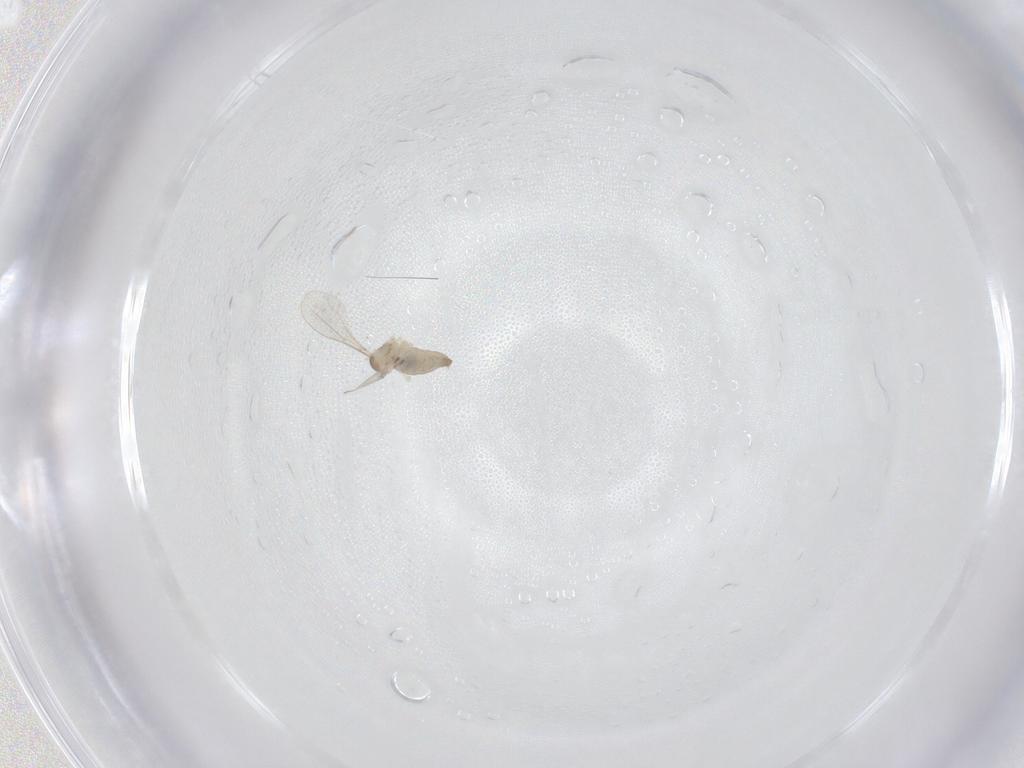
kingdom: Animalia
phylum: Arthropoda
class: Insecta
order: Diptera
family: Cecidomyiidae
